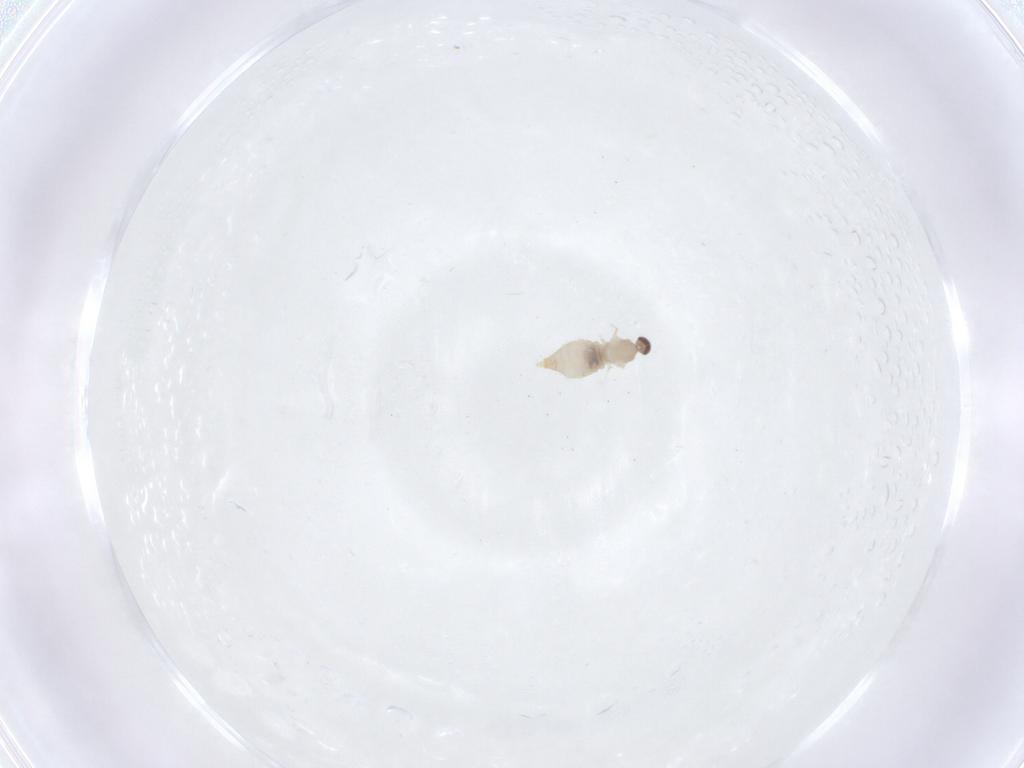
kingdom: Animalia
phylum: Arthropoda
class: Insecta
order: Diptera
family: Cecidomyiidae
